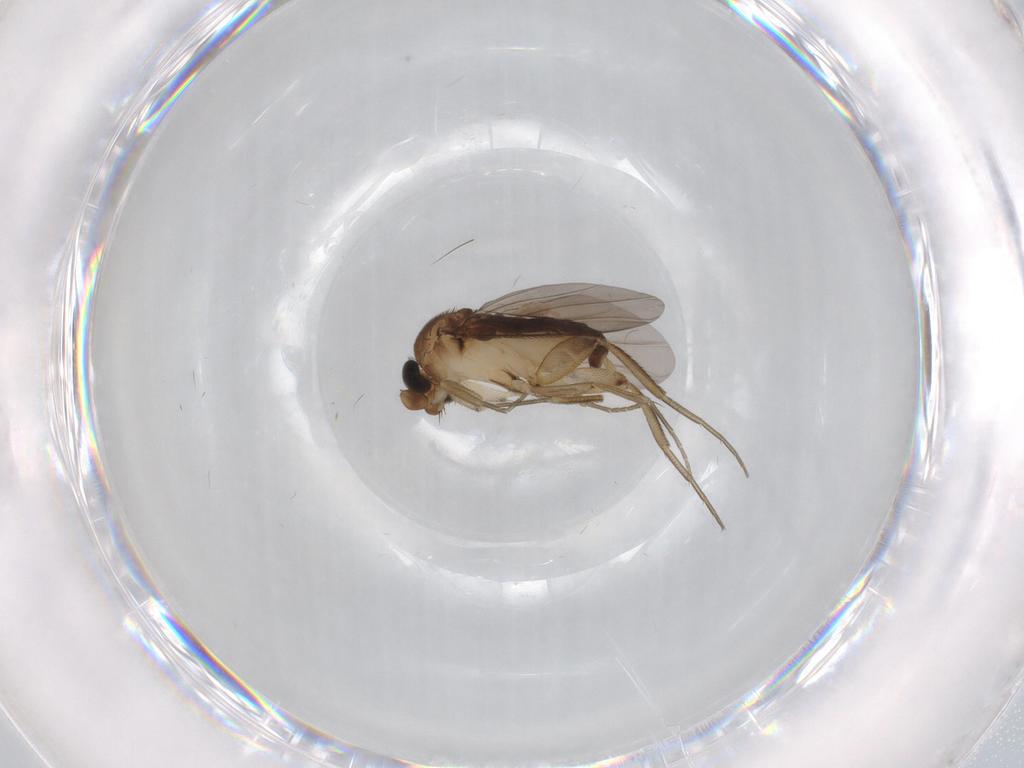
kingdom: Animalia
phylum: Arthropoda
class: Insecta
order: Diptera
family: Phoridae
